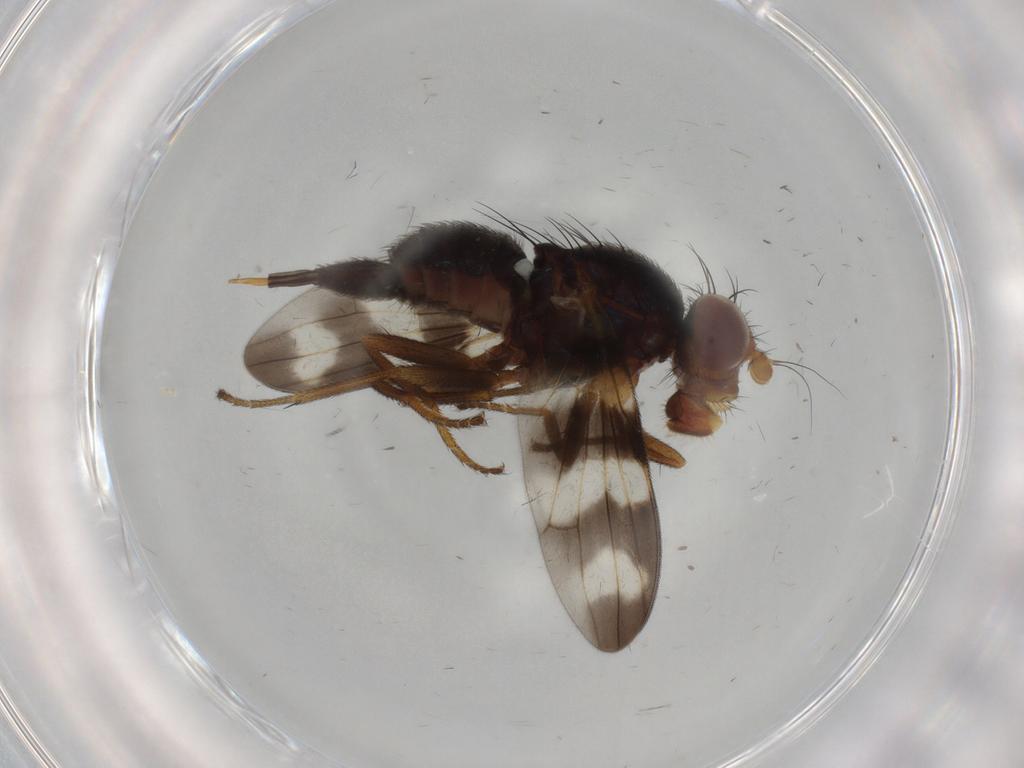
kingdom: Animalia
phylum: Arthropoda
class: Insecta
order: Diptera
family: Ulidiidae
